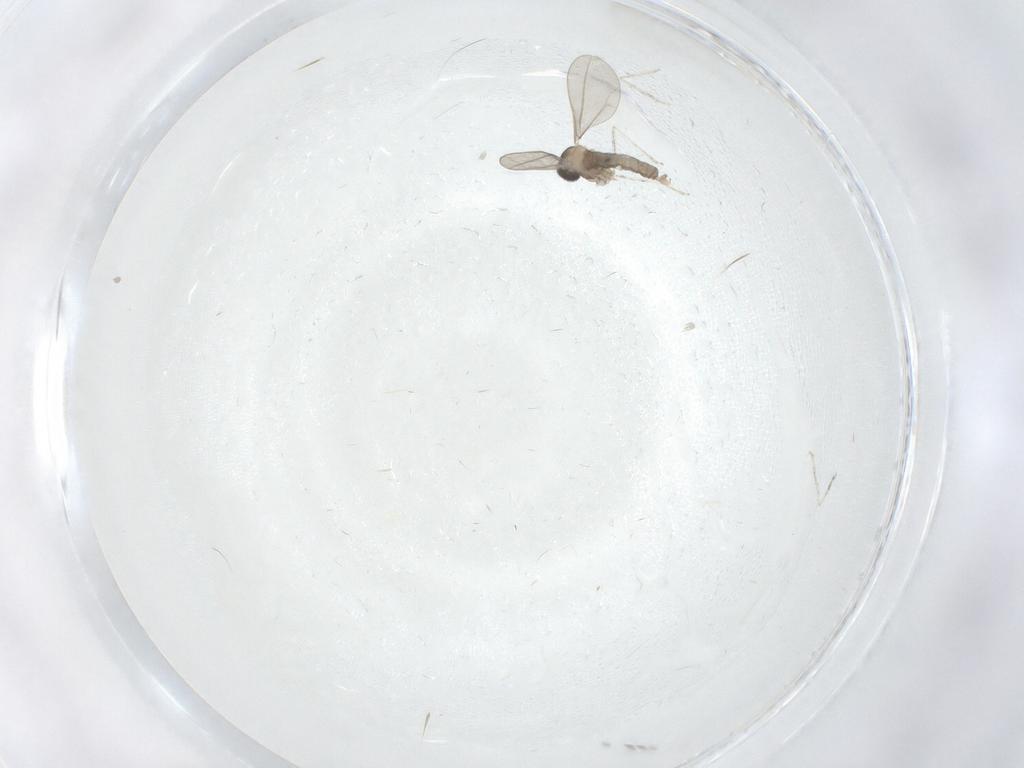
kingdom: Animalia
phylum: Arthropoda
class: Insecta
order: Diptera
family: Cecidomyiidae
